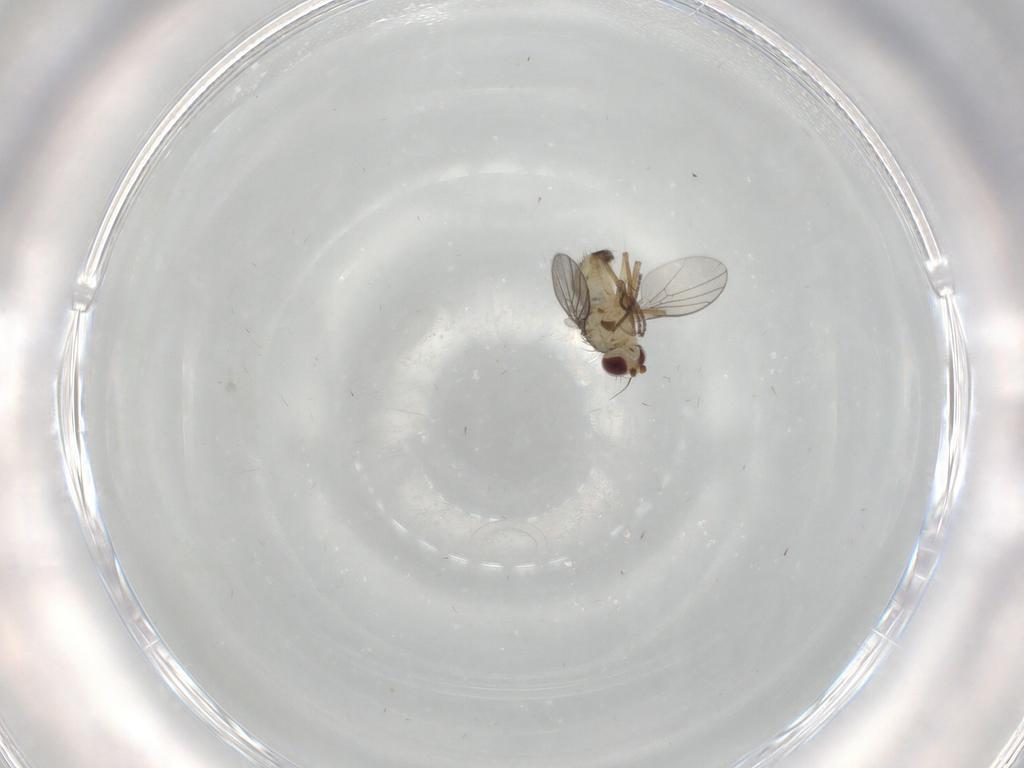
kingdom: Animalia
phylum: Arthropoda
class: Insecta
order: Diptera
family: Agromyzidae
